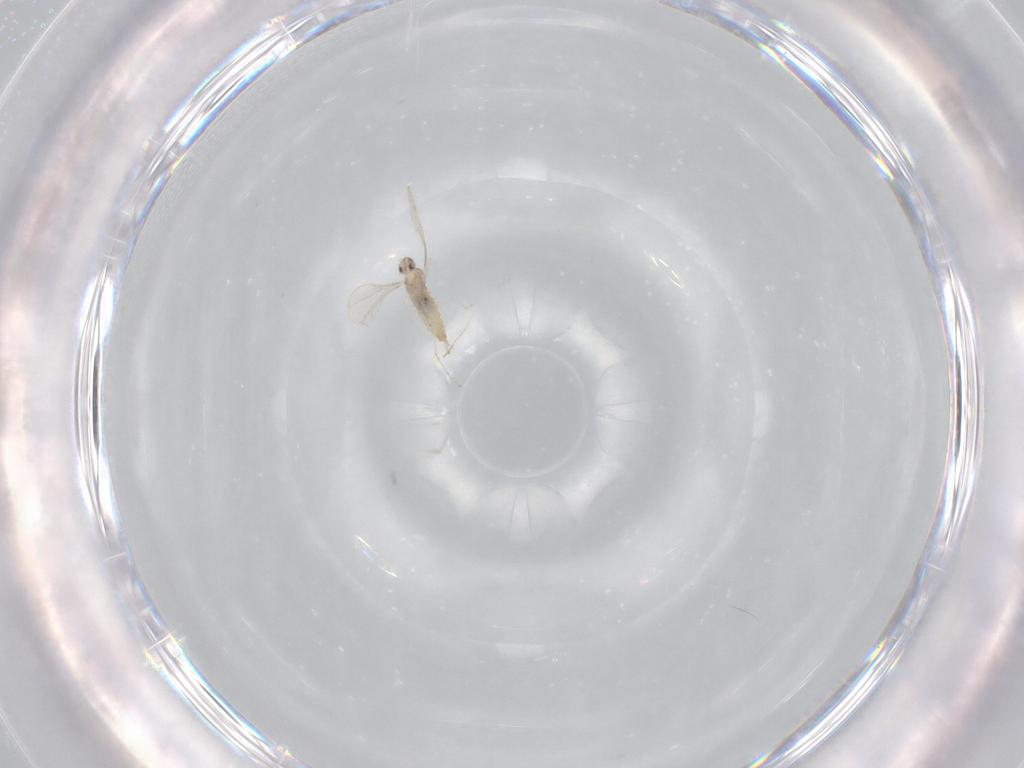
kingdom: Animalia
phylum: Arthropoda
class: Insecta
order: Diptera
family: Cecidomyiidae
